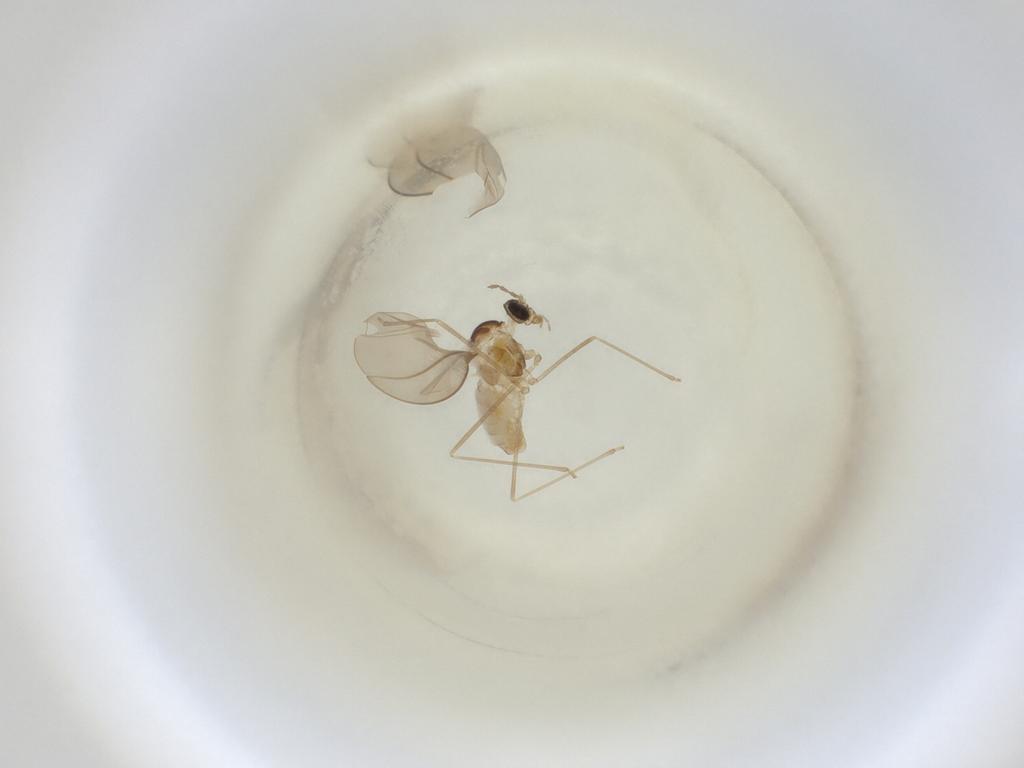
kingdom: Animalia
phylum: Arthropoda
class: Insecta
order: Diptera
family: Cecidomyiidae
